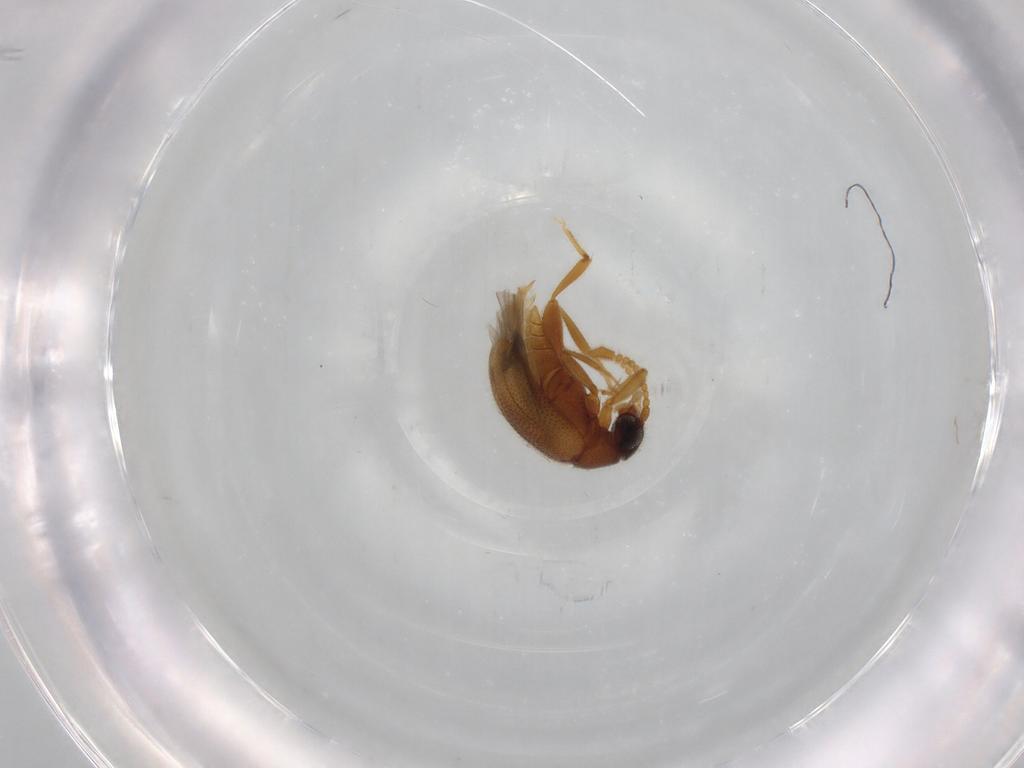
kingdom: Animalia
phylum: Arthropoda
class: Insecta
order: Coleoptera
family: Aderidae
